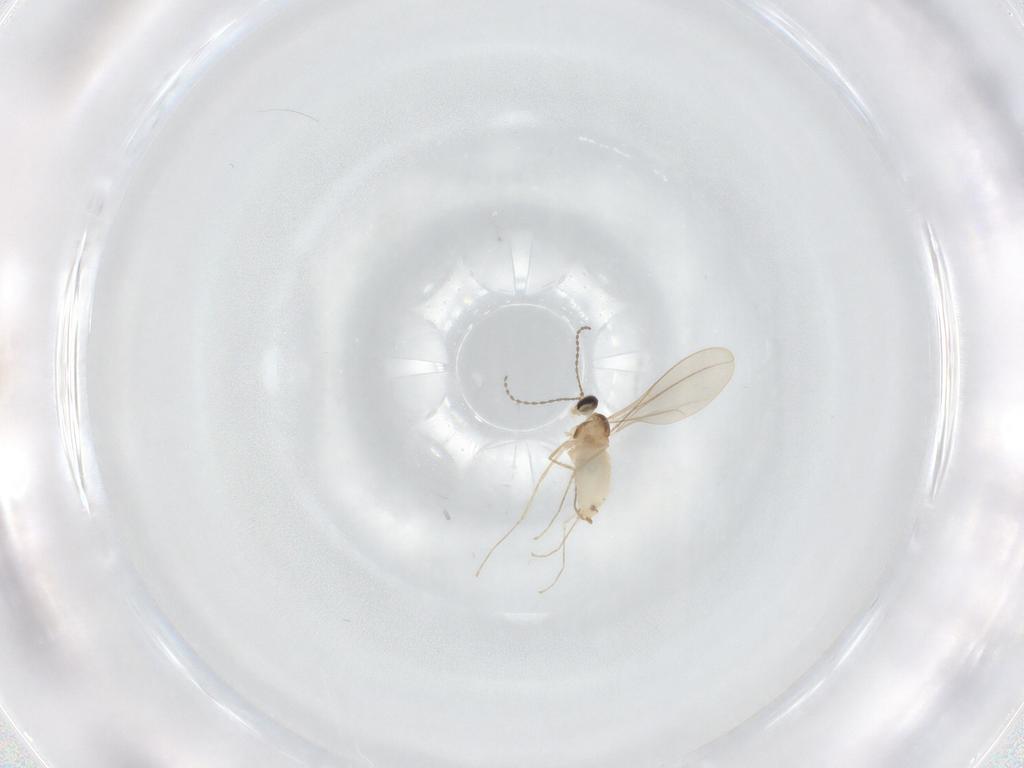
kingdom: Animalia
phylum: Arthropoda
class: Insecta
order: Diptera
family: Cecidomyiidae
